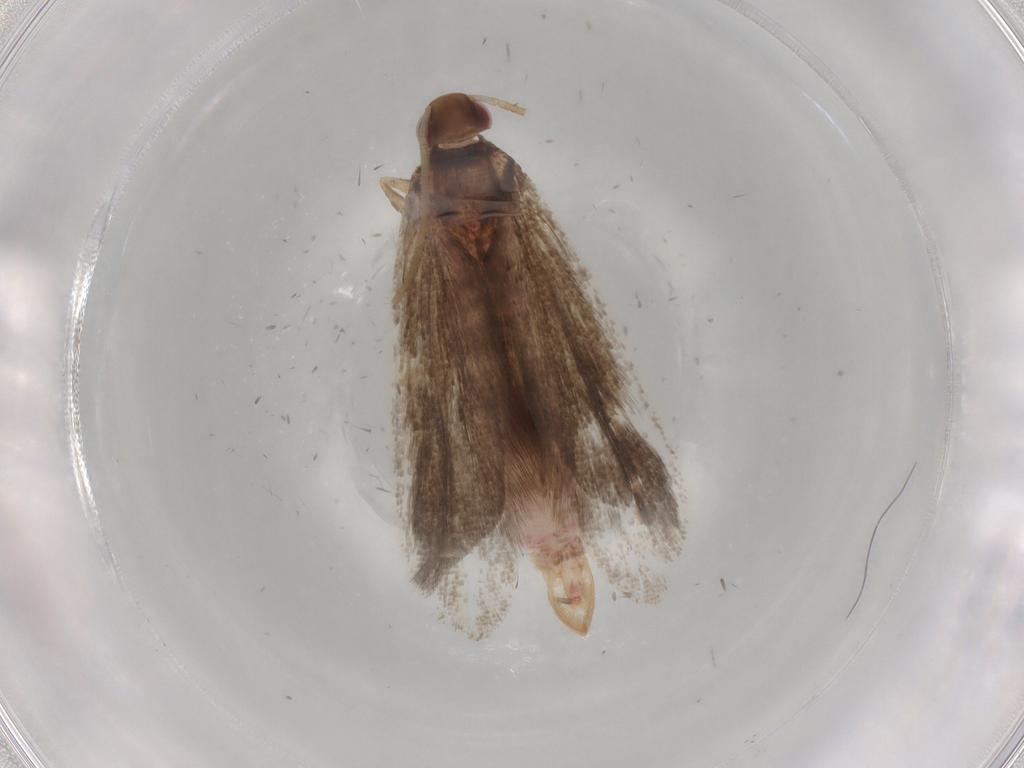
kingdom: Animalia
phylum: Arthropoda
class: Insecta
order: Lepidoptera
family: Gelechiidae
